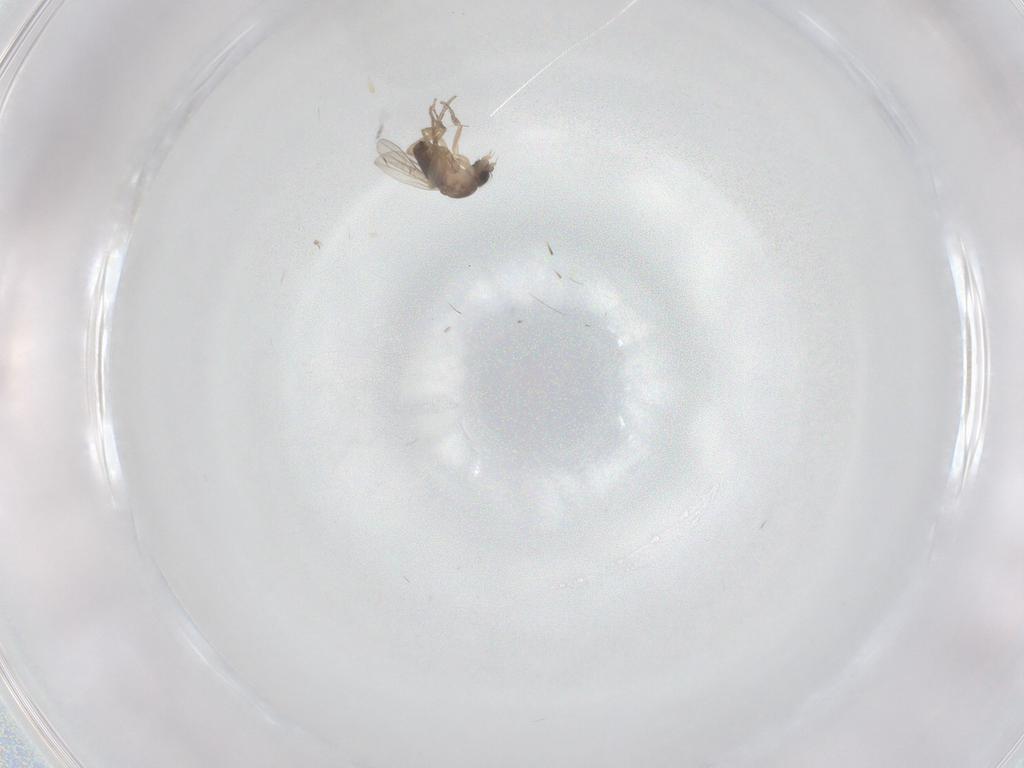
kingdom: Animalia
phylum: Arthropoda
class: Insecta
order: Diptera
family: Phoridae
